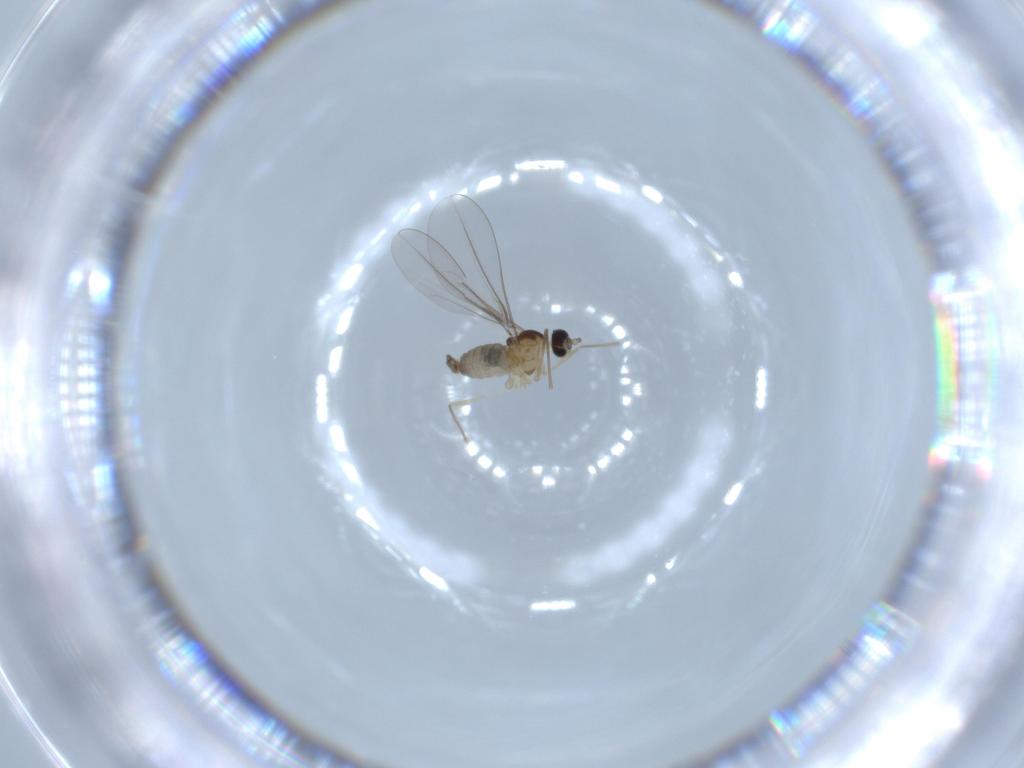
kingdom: Animalia
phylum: Arthropoda
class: Insecta
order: Diptera
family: Cecidomyiidae
